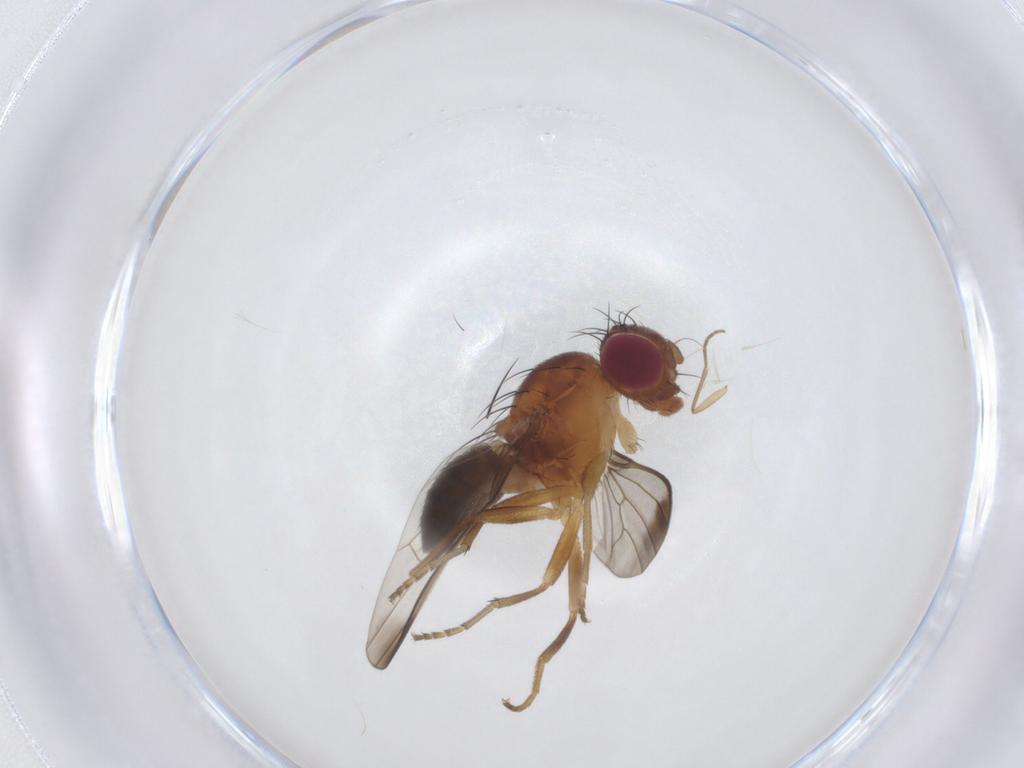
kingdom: Animalia
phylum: Arthropoda
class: Insecta
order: Diptera
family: Piophilidae
